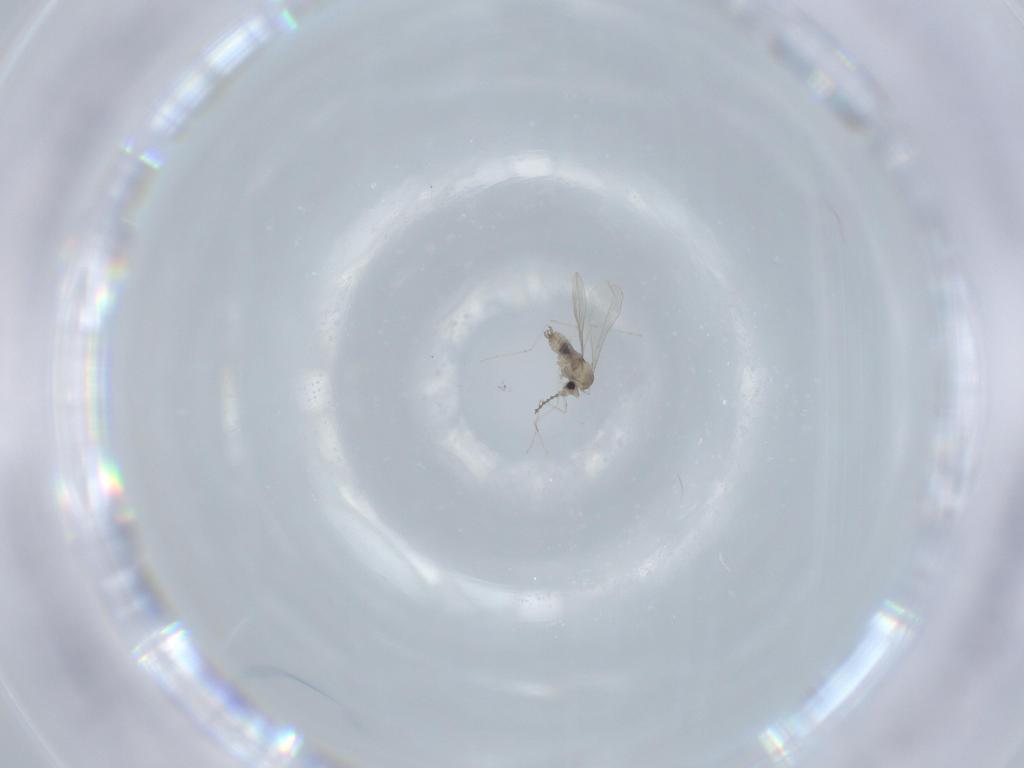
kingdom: Animalia
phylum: Arthropoda
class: Insecta
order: Diptera
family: Cecidomyiidae
